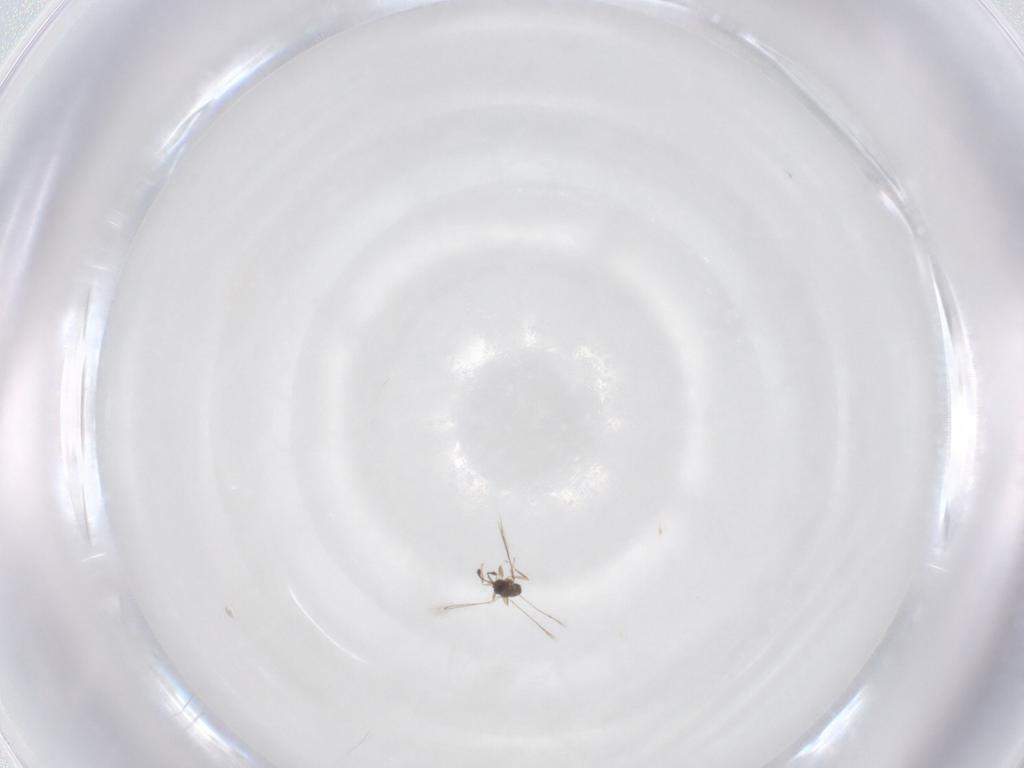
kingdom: Animalia
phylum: Arthropoda
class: Insecta
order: Hymenoptera
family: Mymaridae
